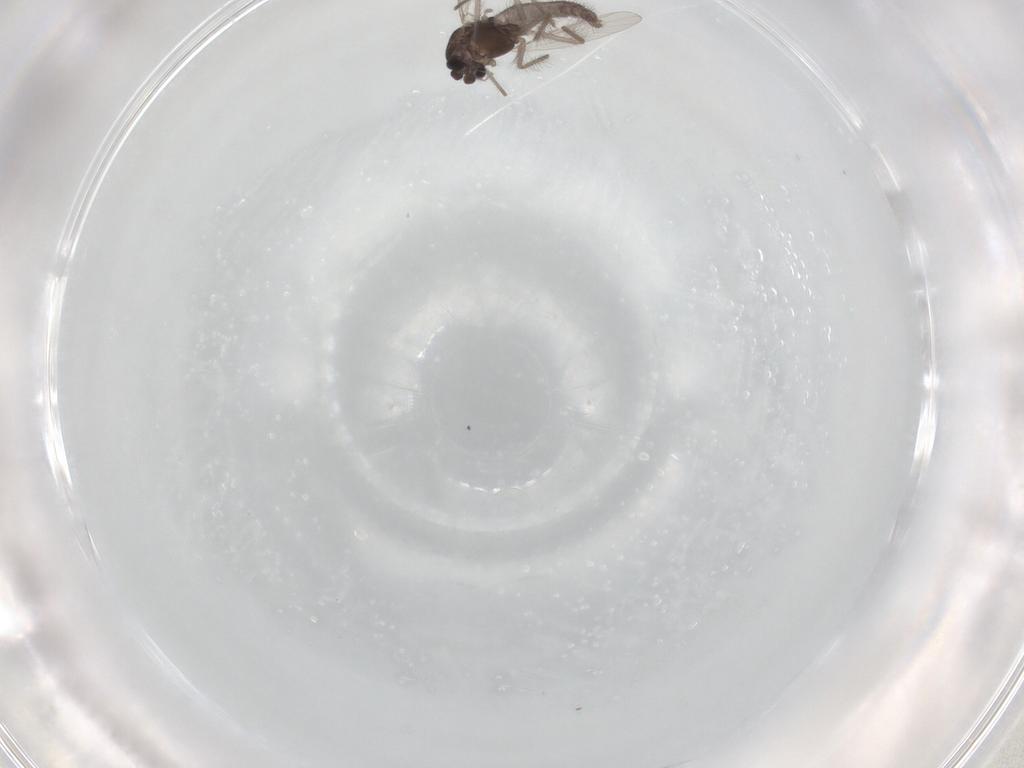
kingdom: Animalia
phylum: Arthropoda
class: Insecta
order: Diptera
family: Chironomidae
